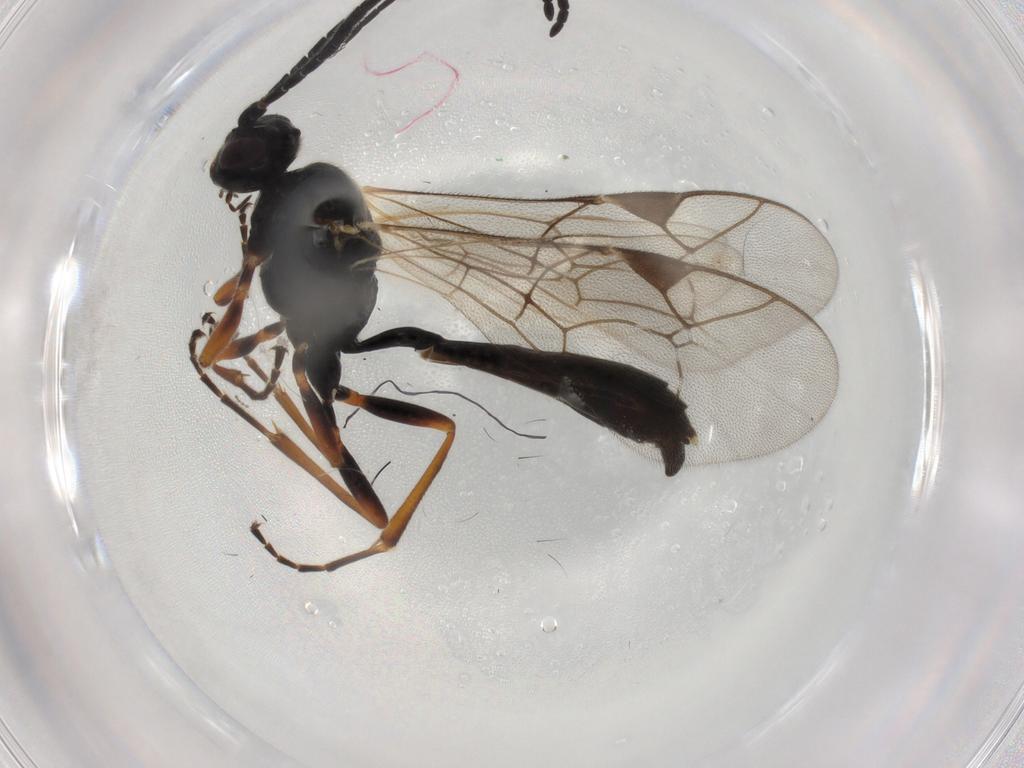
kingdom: Animalia
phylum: Arthropoda
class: Insecta
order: Hymenoptera
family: Ichneumonidae
